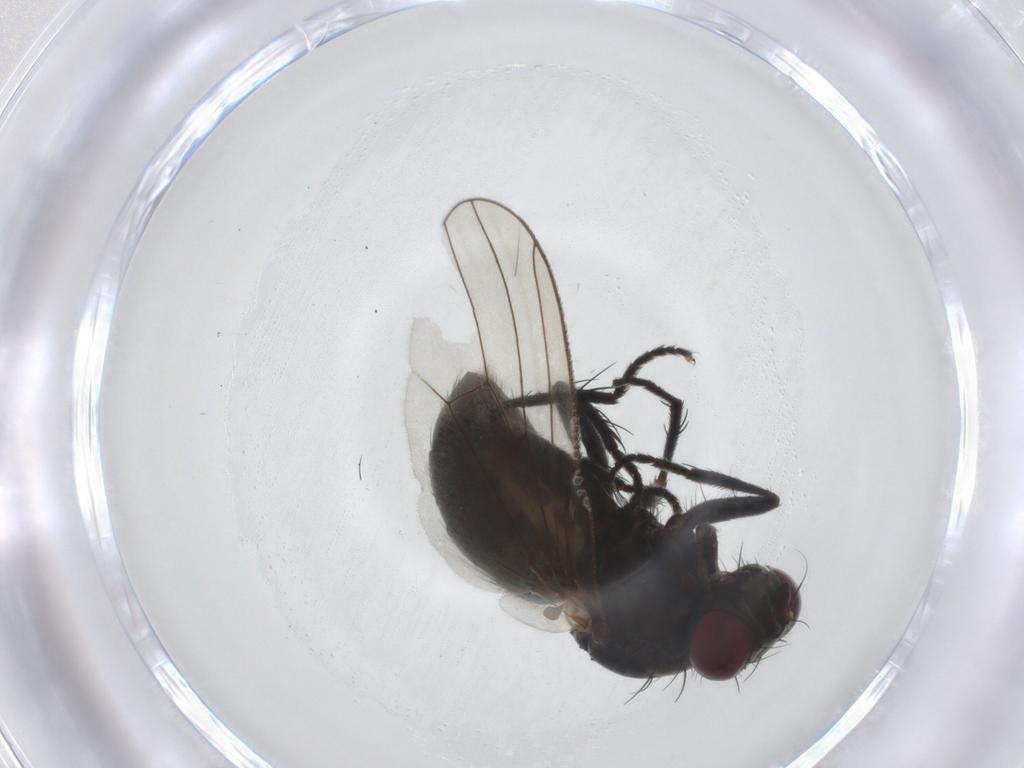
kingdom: Animalia
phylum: Arthropoda
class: Insecta
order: Diptera
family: Muscidae
